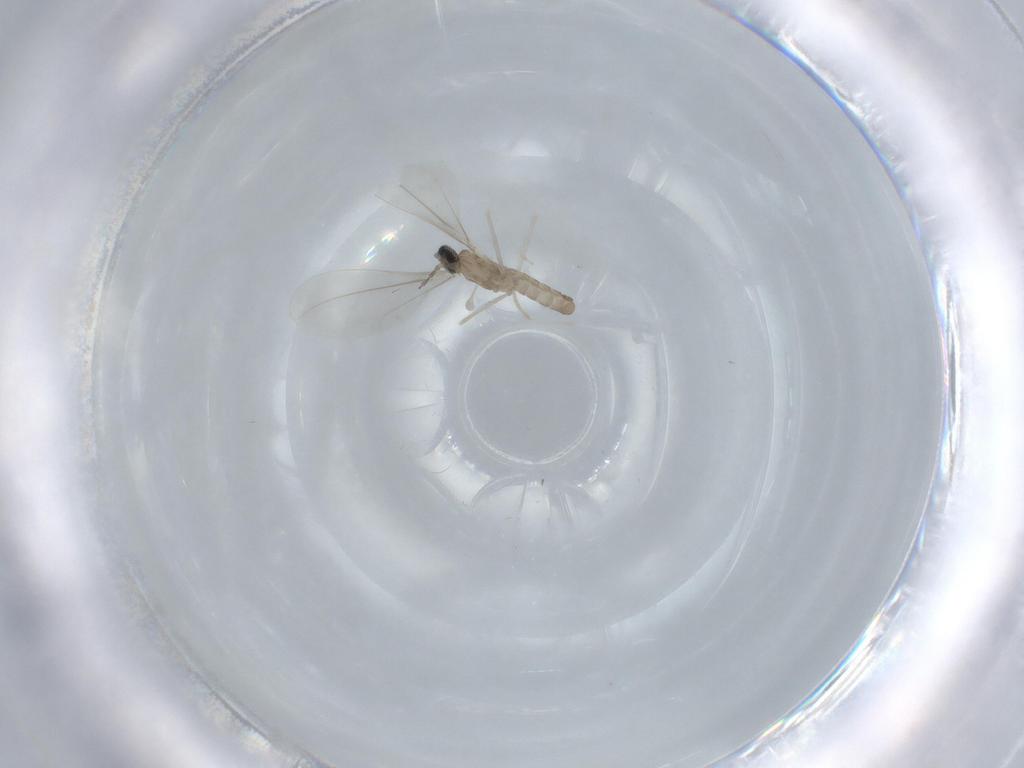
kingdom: Animalia
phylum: Arthropoda
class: Insecta
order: Diptera
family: Cecidomyiidae
